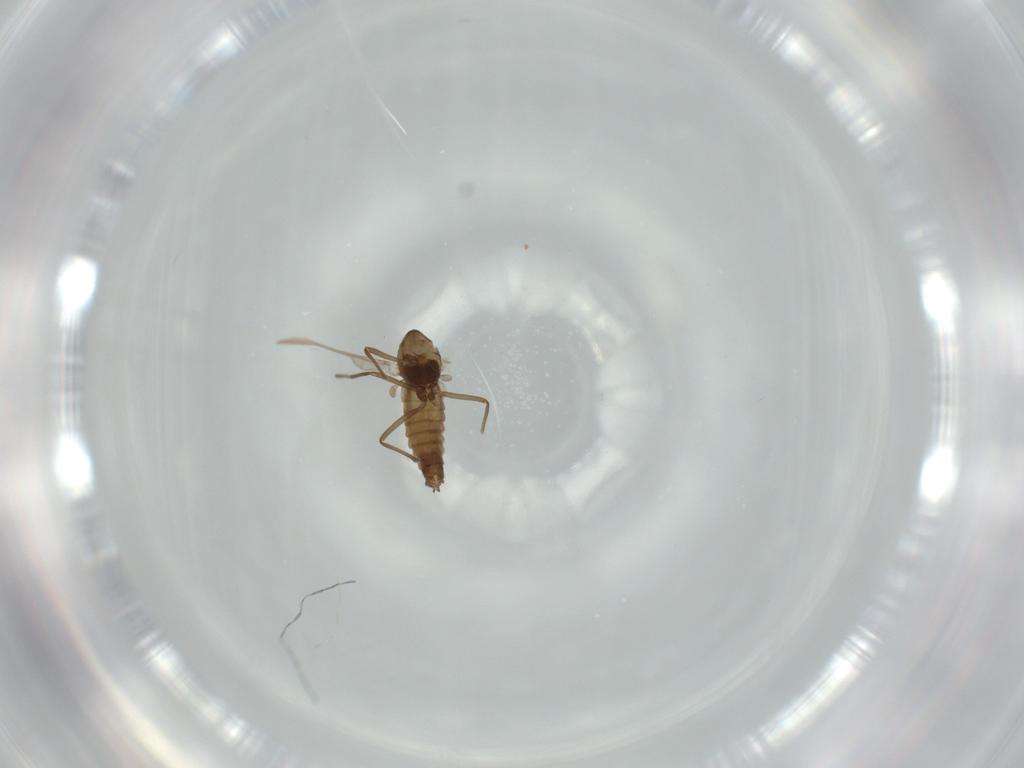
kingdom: Animalia
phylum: Arthropoda
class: Insecta
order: Diptera
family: Chironomidae
